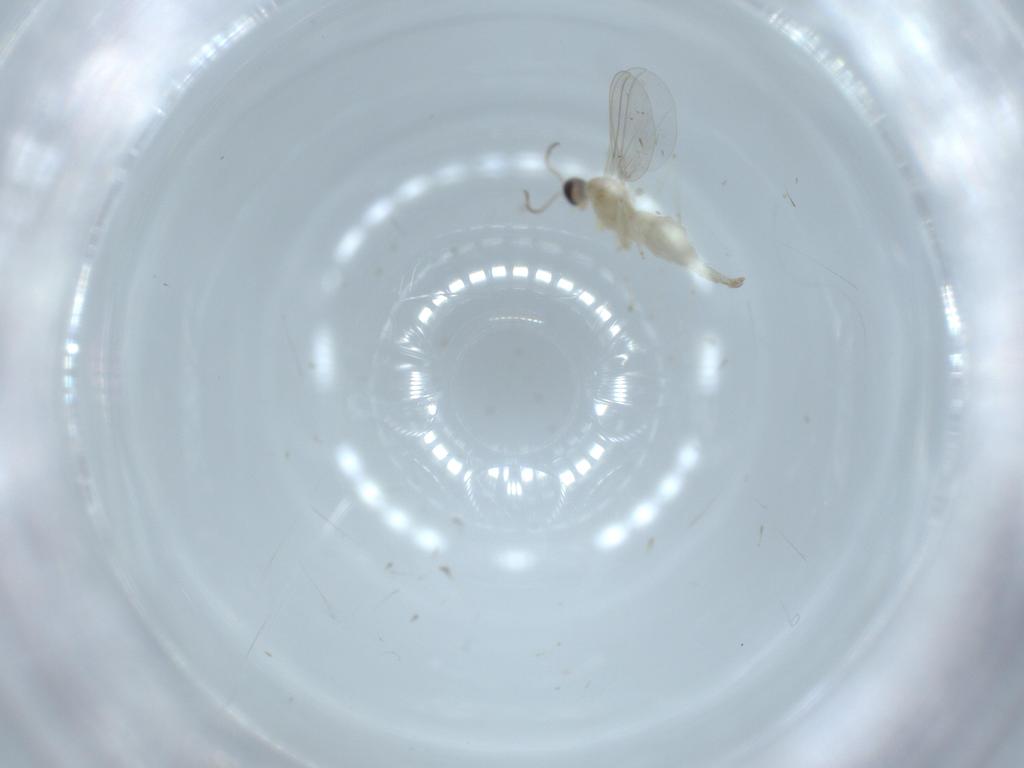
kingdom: Animalia
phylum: Arthropoda
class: Insecta
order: Diptera
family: Cecidomyiidae
